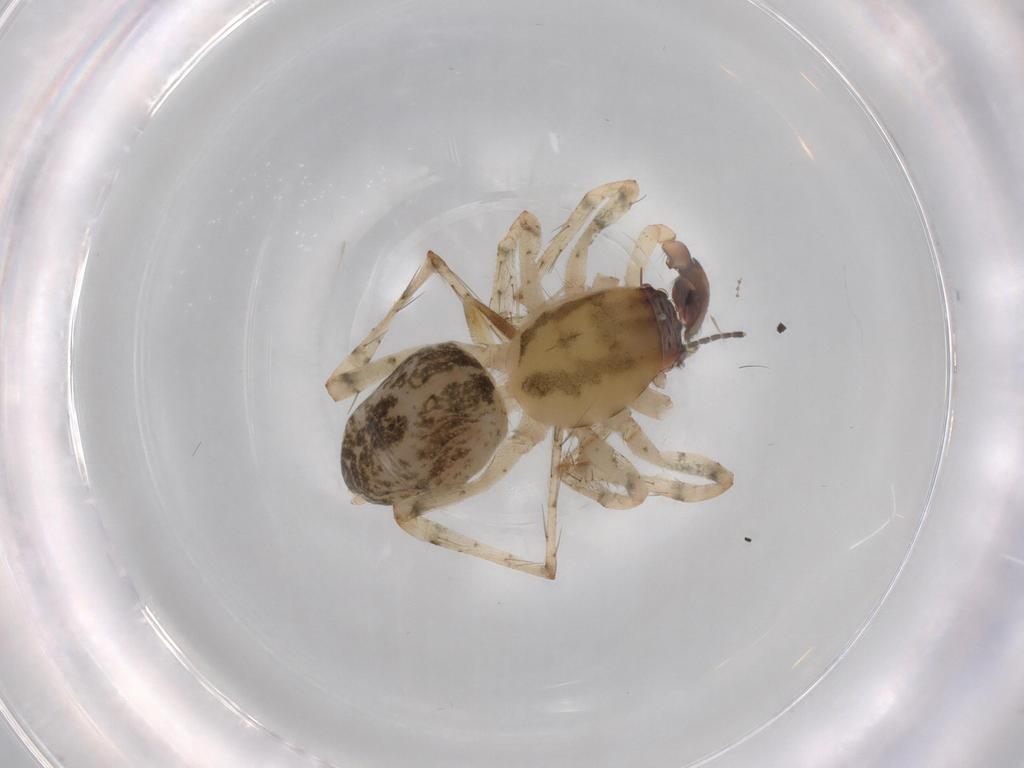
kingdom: Animalia
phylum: Arthropoda
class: Arachnida
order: Araneae
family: Anyphaenidae
